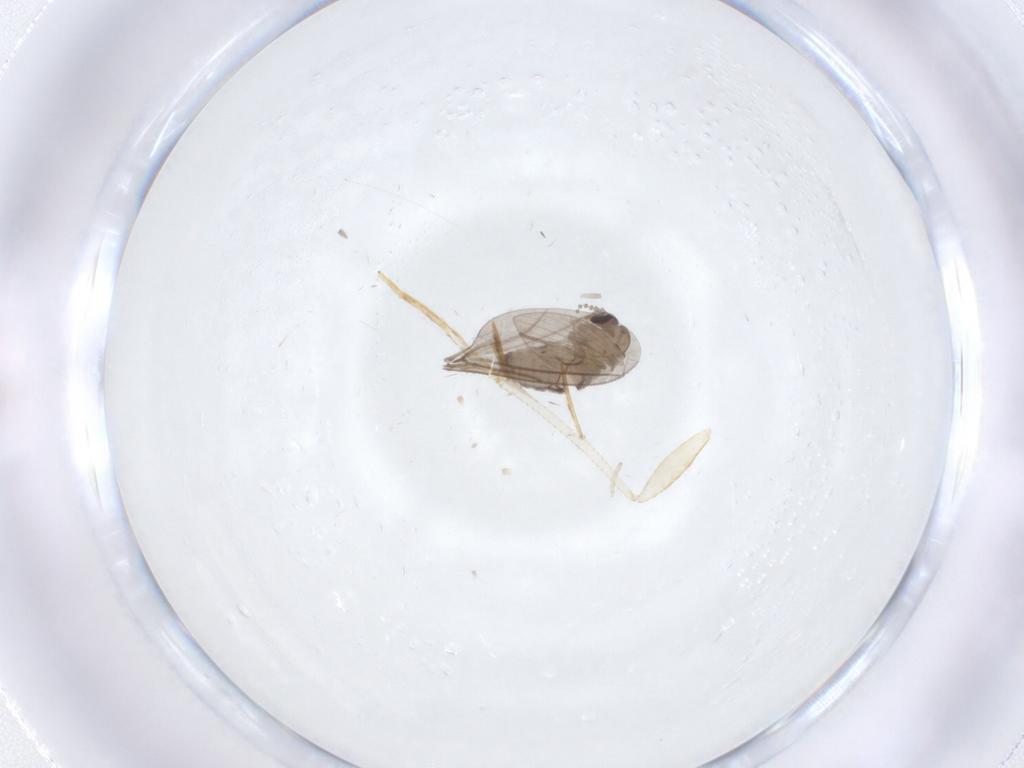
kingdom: Animalia
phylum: Arthropoda
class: Insecta
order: Diptera
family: Psychodidae
